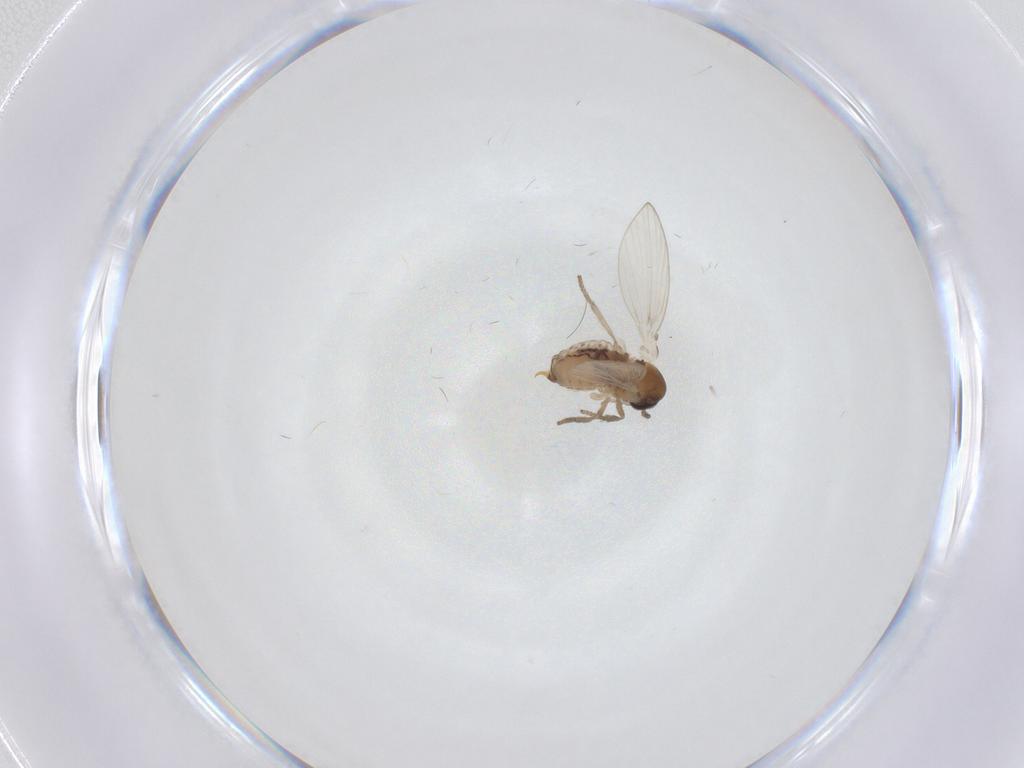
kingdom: Animalia
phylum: Arthropoda
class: Insecta
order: Diptera
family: Psychodidae
